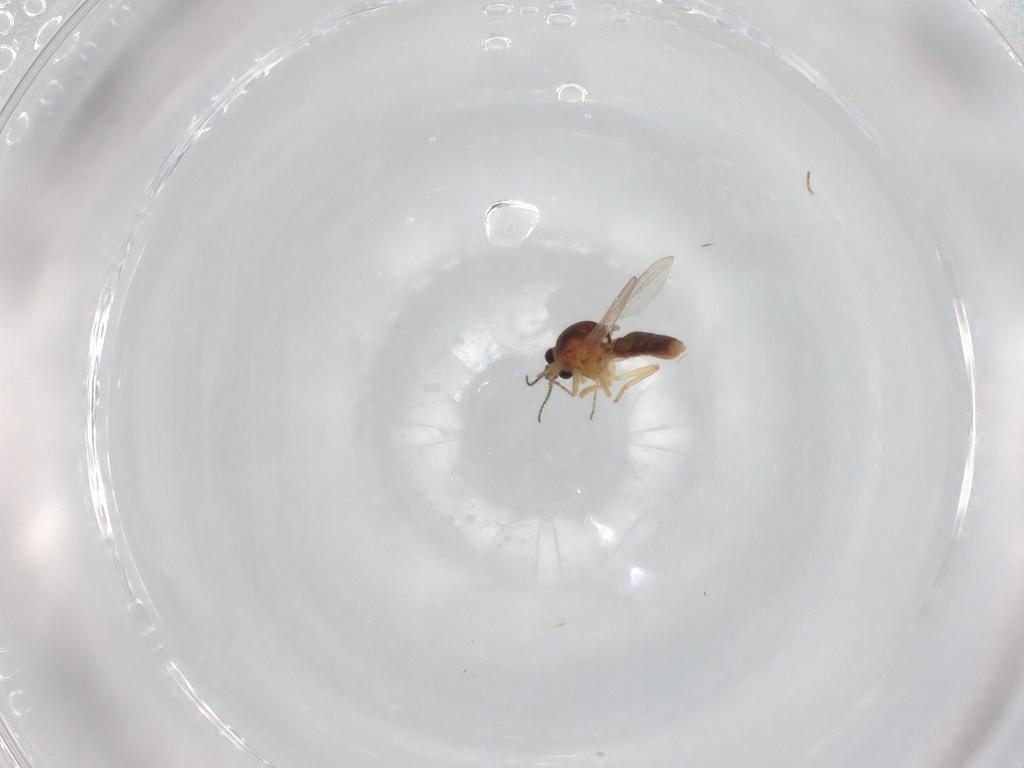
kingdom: Animalia
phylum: Arthropoda
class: Insecta
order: Diptera
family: Ceratopogonidae
